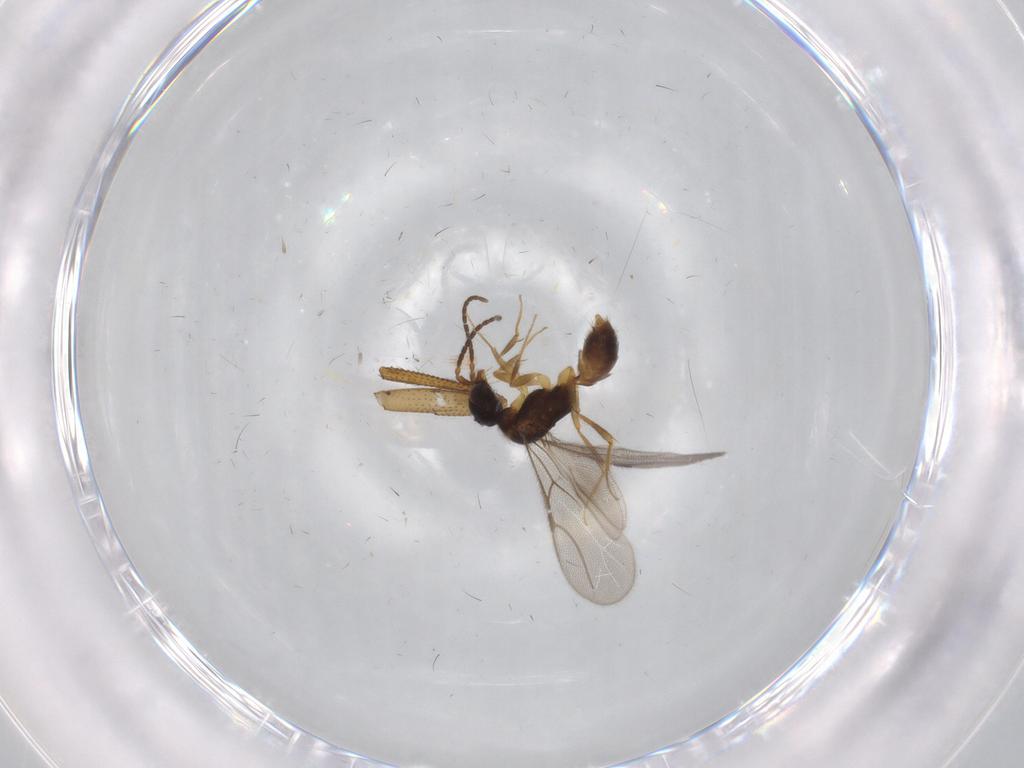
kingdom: Animalia
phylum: Arthropoda
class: Insecta
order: Hymenoptera
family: Bethylidae
